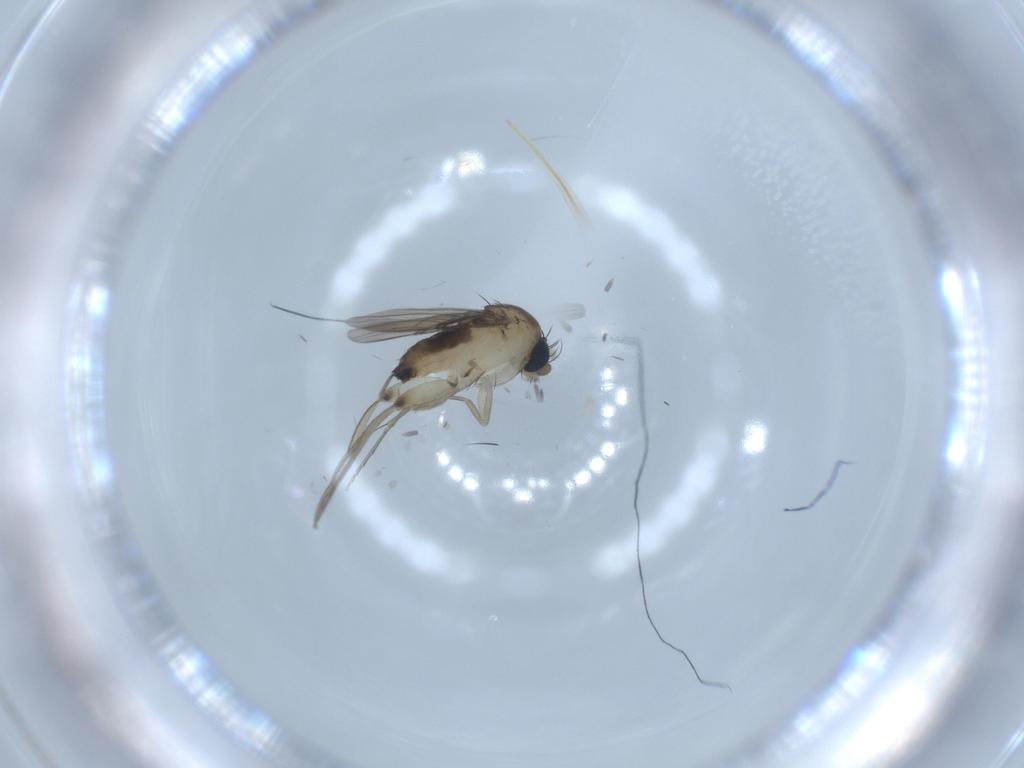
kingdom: Animalia
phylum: Arthropoda
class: Insecta
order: Diptera
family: Phoridae
